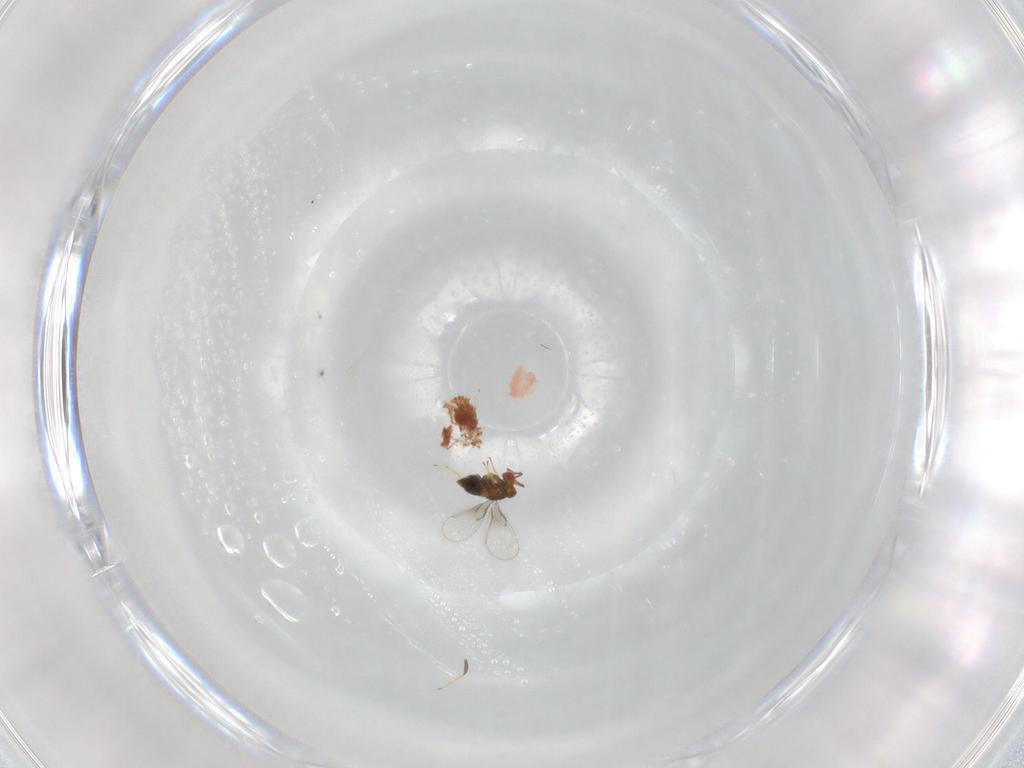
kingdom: Animalia
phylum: Arthropoda
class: Insecta
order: Hymenoptera
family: Trichogrammatidae
